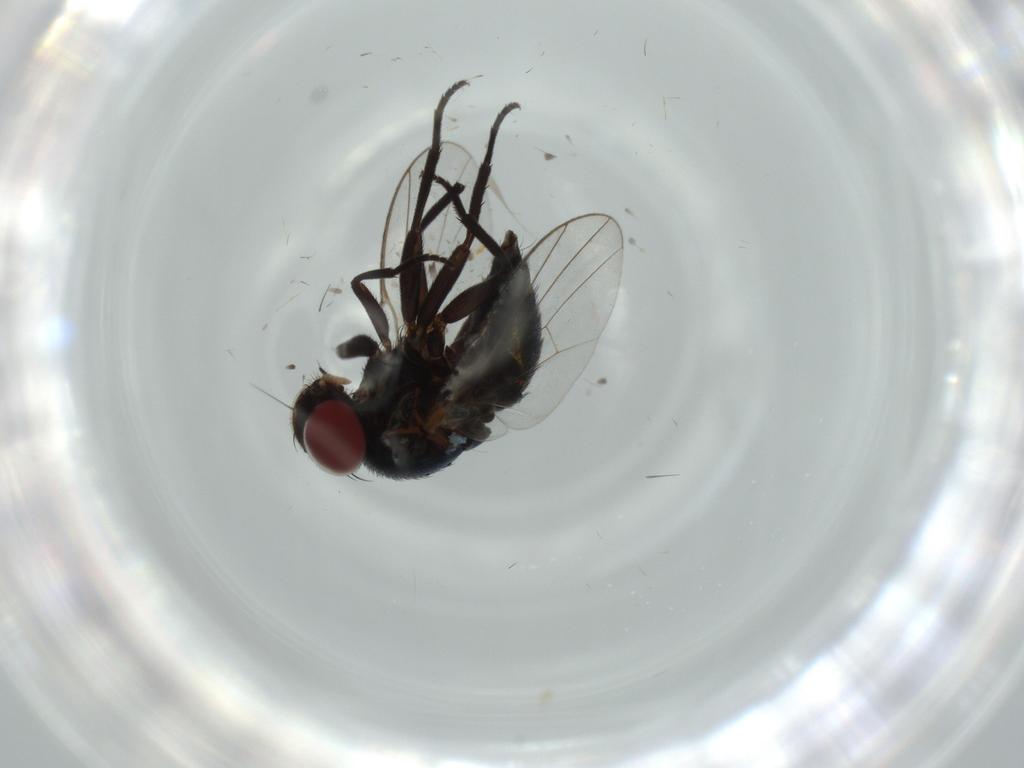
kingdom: Animalia
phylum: Arthropoda
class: Insecta
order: Diptera
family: Agromyzidae
